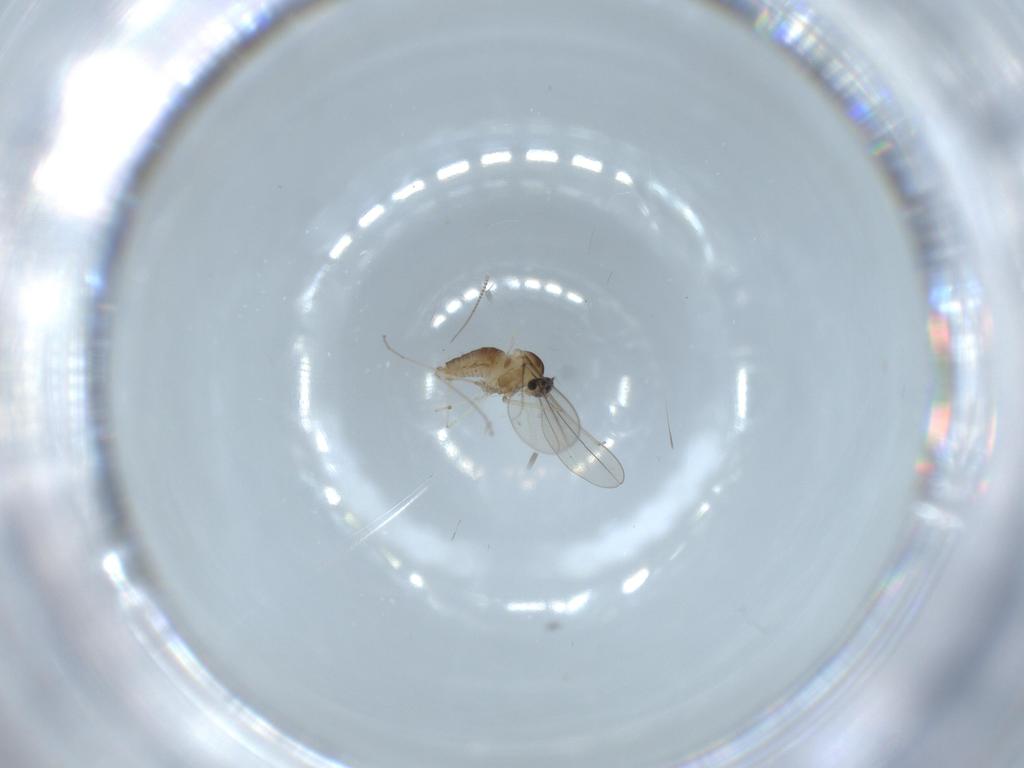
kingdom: Animalia
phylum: Arthropoda
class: Insecta
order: Diptera
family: Cecidomyiidae
